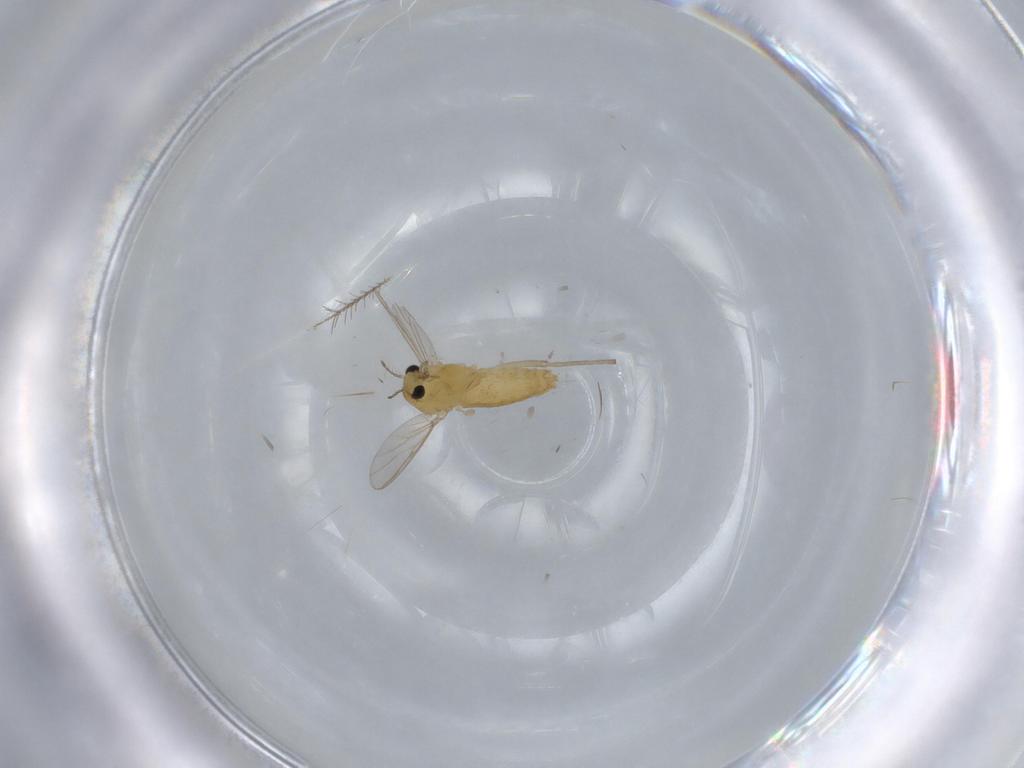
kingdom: Animalia
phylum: Arthropoda
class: Insecta
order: Diptera
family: Chironomidae
